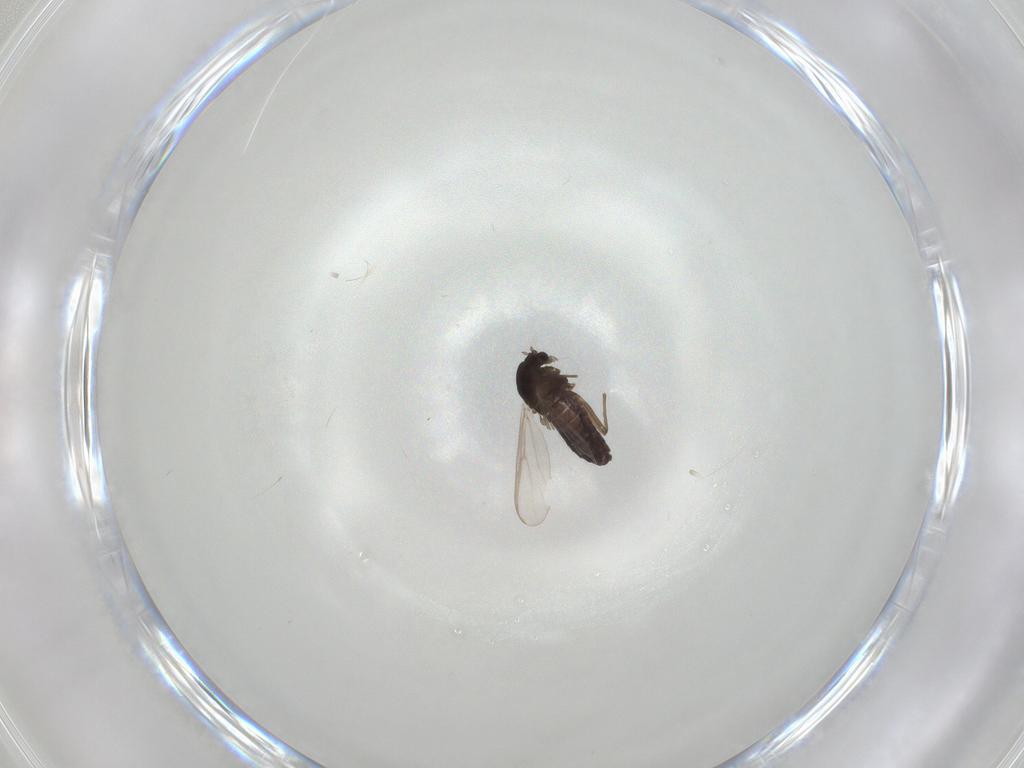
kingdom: Animalia
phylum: Arthropoda
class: Insecta
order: Diptera
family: Chironomidae
